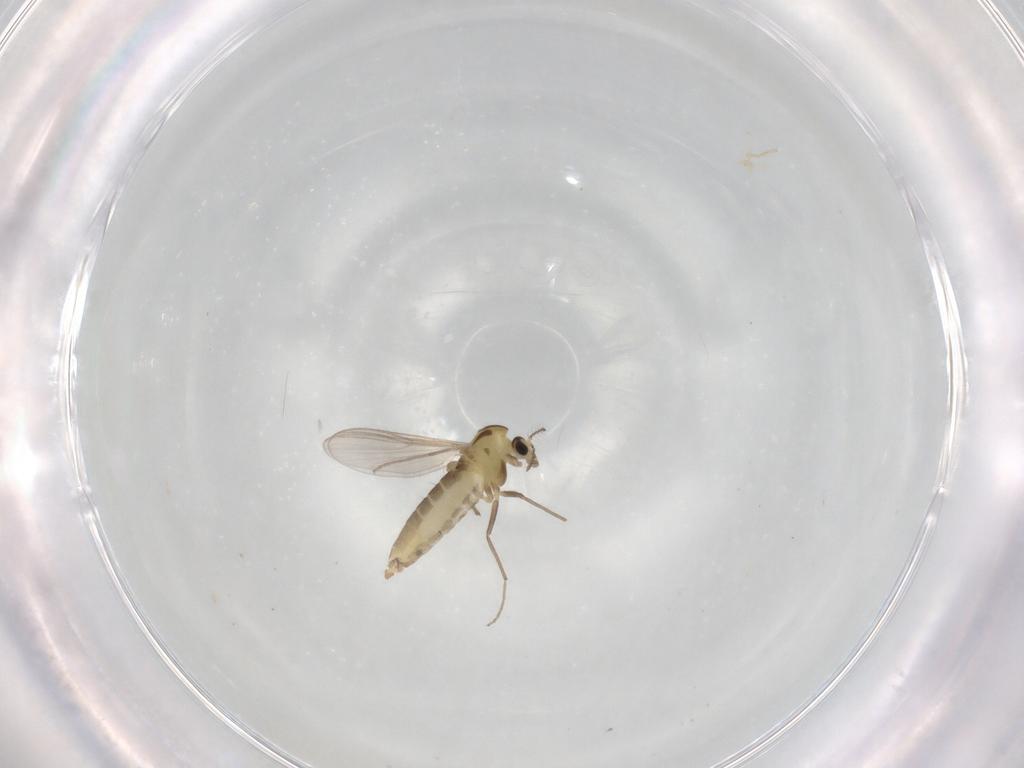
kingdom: Animalia
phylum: Arthropoda
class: Insecta
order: Diptera
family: Chironomidae
